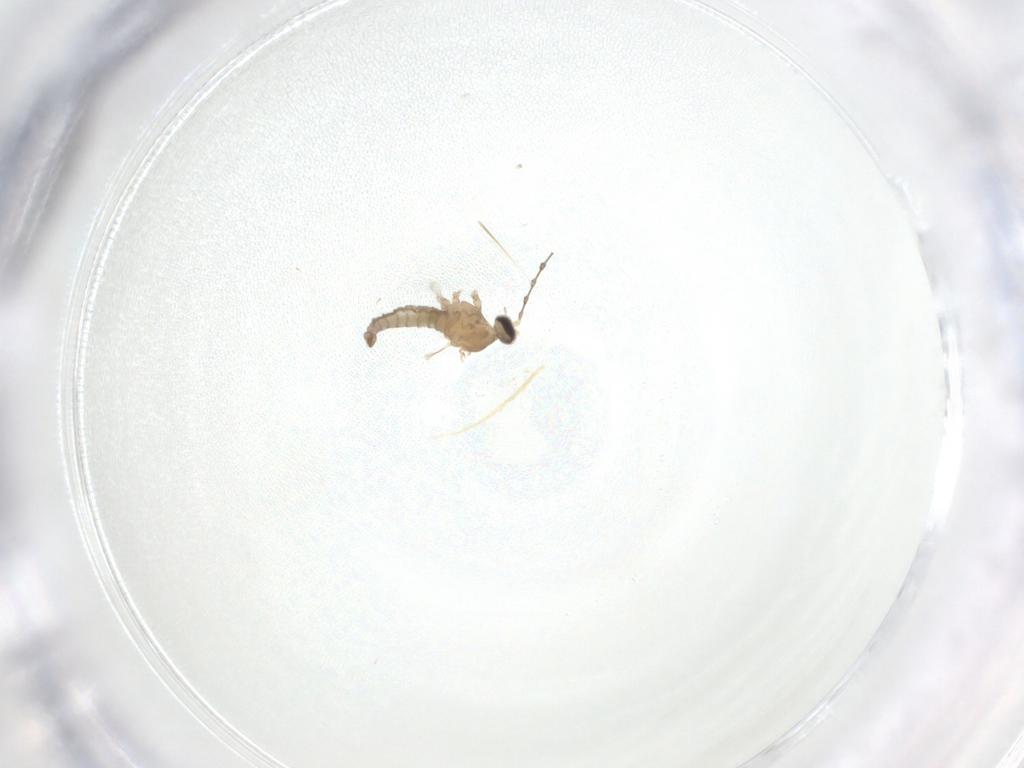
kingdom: Animalia
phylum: Arthropoda
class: Insecta
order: Diptera
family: Cecidomyiidae
